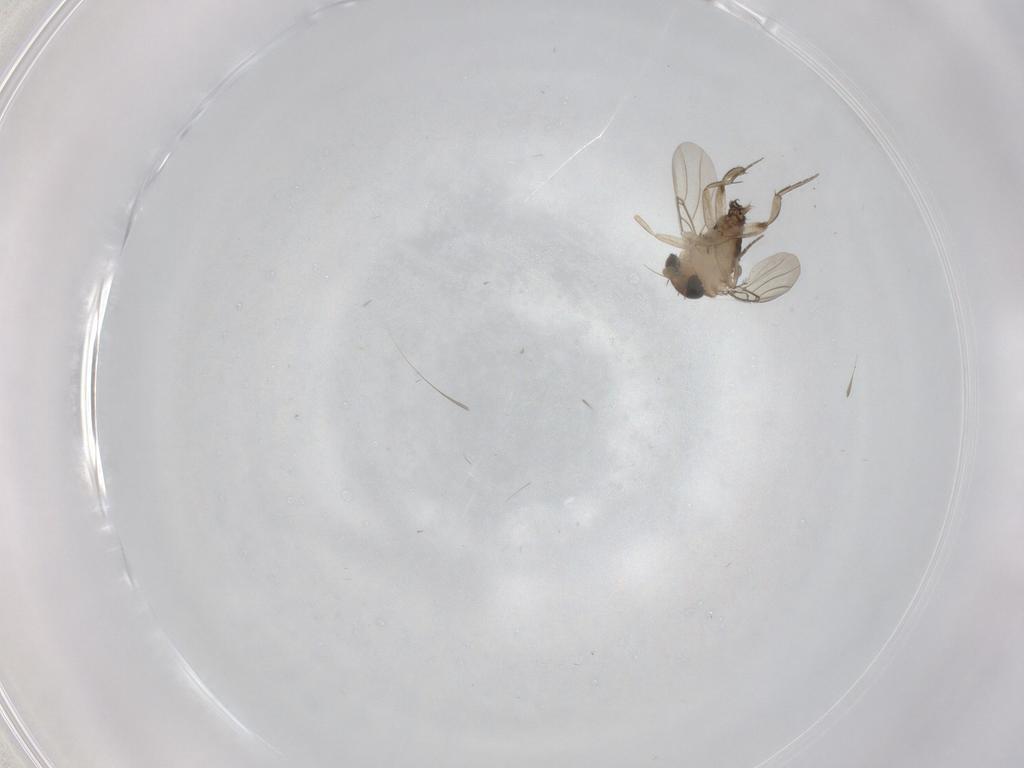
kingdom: Animalia
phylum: Arthropoda
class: Insecta
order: Diptera
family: Phoridae
